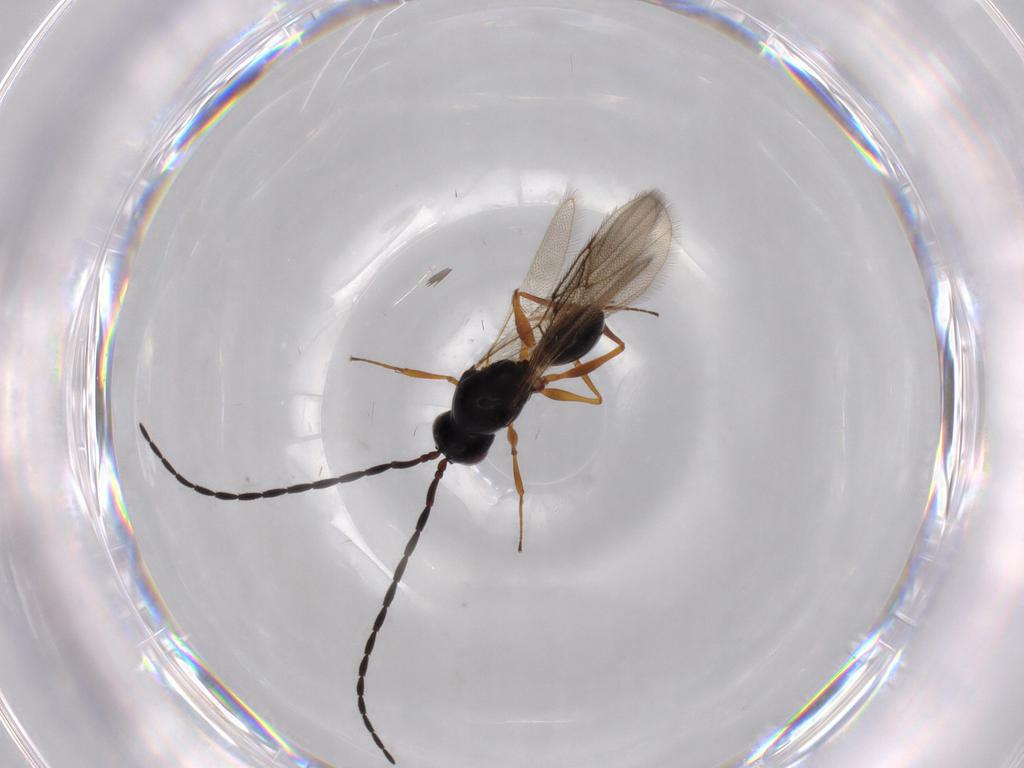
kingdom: Animalia
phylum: Arthropoda
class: Insecta
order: Hymenoptera
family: Figitidae
